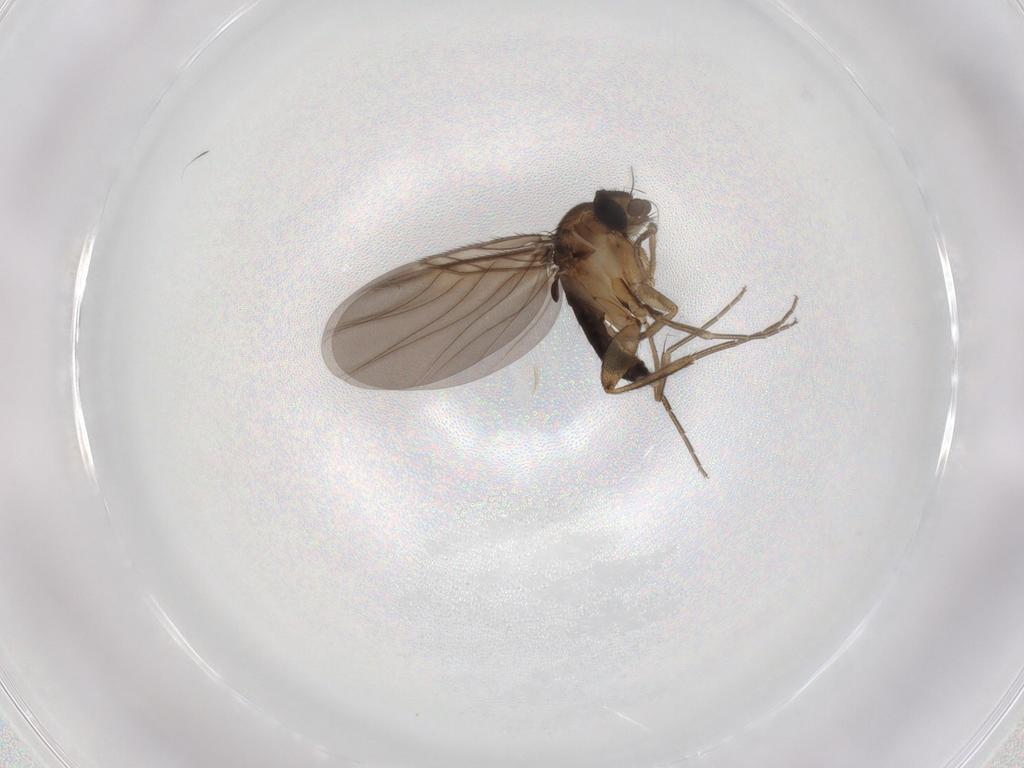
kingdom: Animalia
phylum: Arthropoda
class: Insecta
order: Diptera
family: Phoridae
